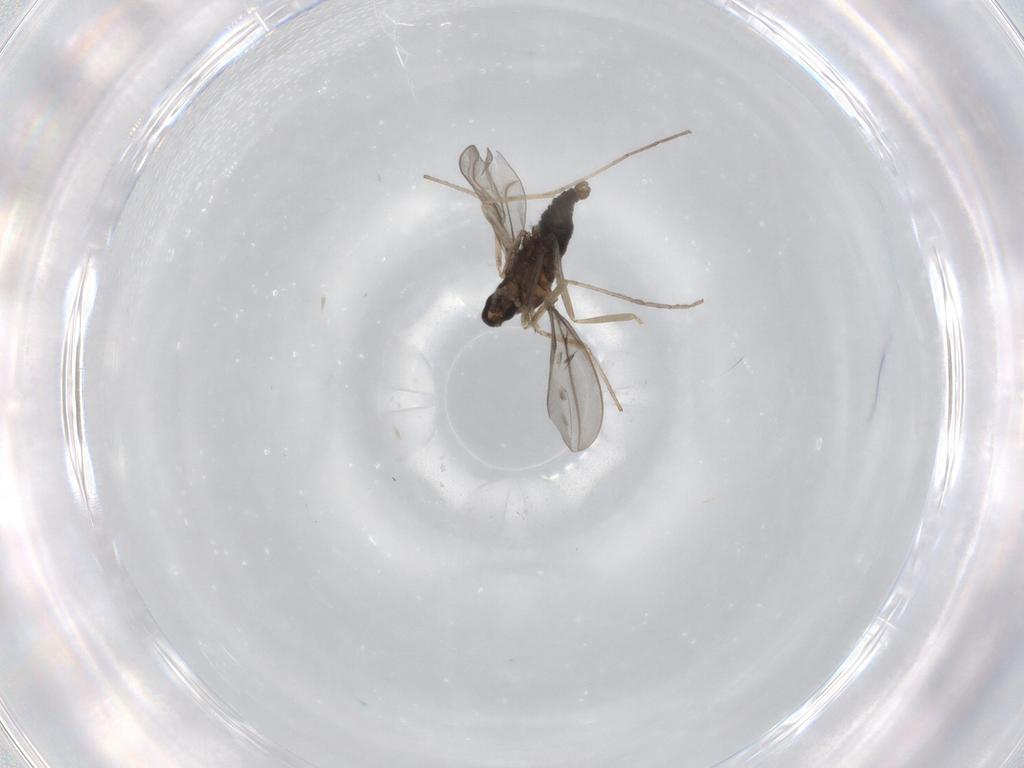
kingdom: Animalia
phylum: Arthropoda
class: Insecta
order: Diptera
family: Cecidomyiidae
